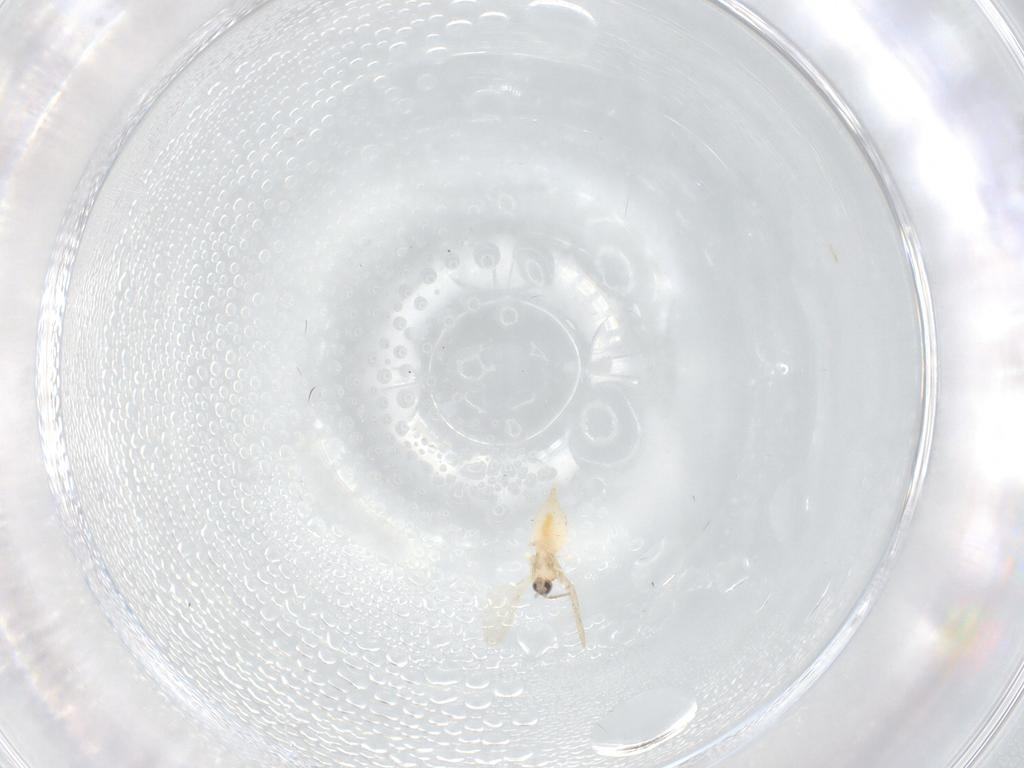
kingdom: Animalia
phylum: Arthropoda
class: Insecta
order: Diptera
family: Cecidomyiidae
